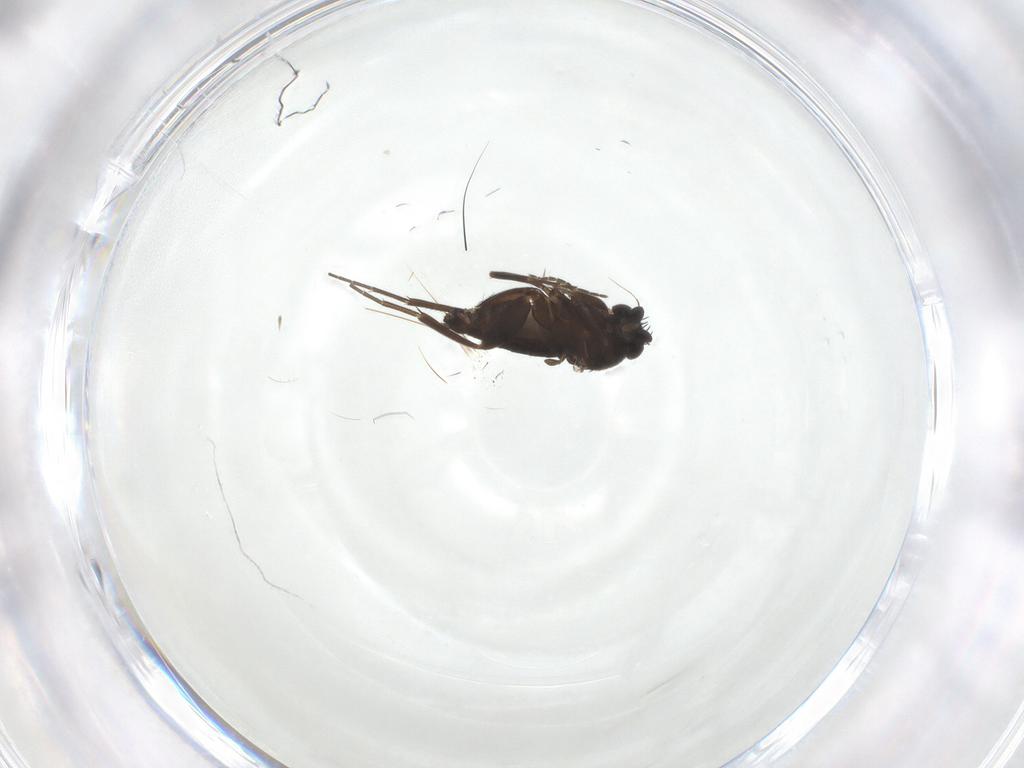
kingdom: Animalia
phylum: Arthropoda
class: Insecta
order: Diptera
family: Phoridae
